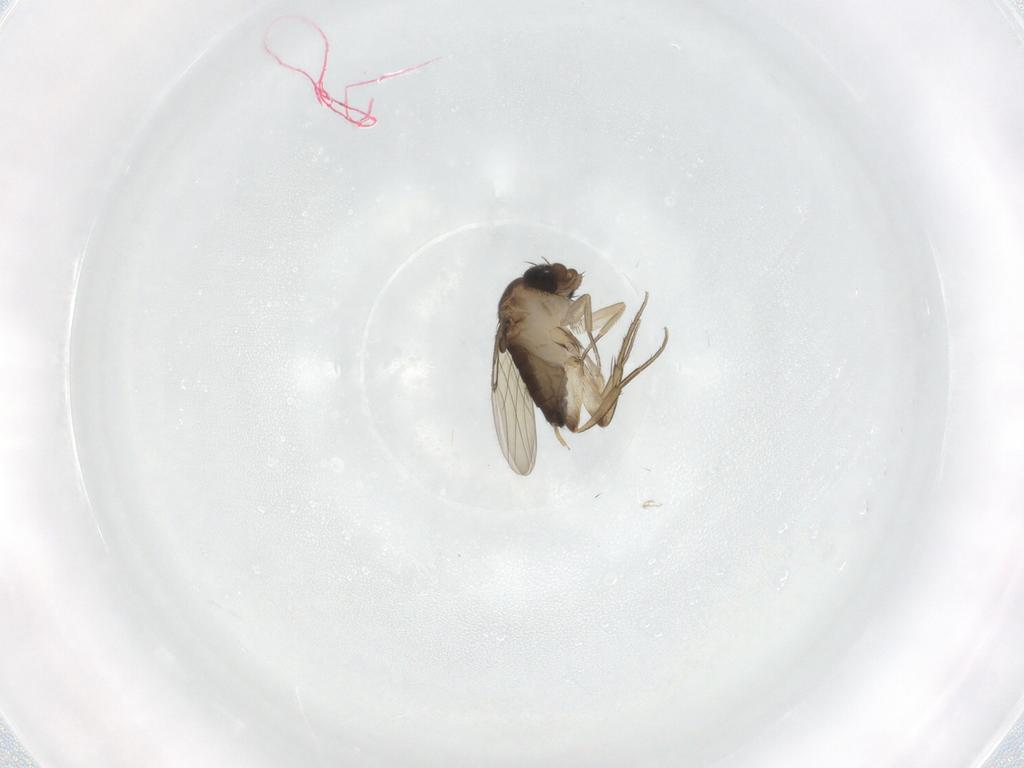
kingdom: Animalia
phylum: Arthropoda
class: Insecta
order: Diptera
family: Phoridae
